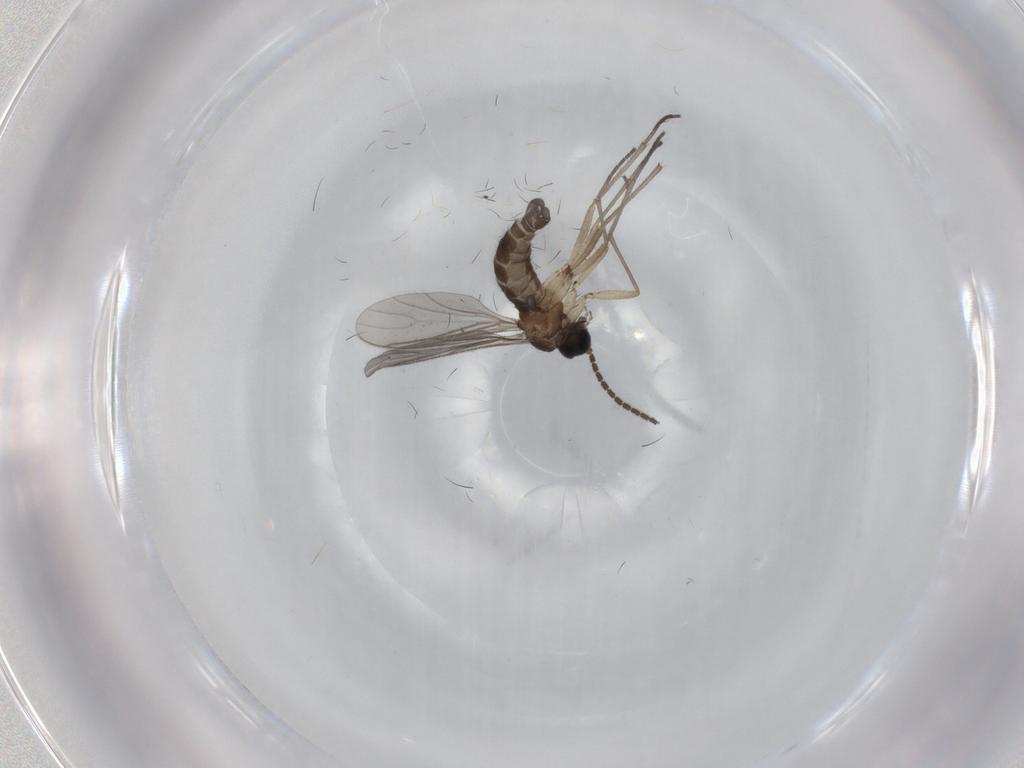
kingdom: Animalia
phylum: Arthropoda
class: Insecta
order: Diptera
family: Sciaridae
